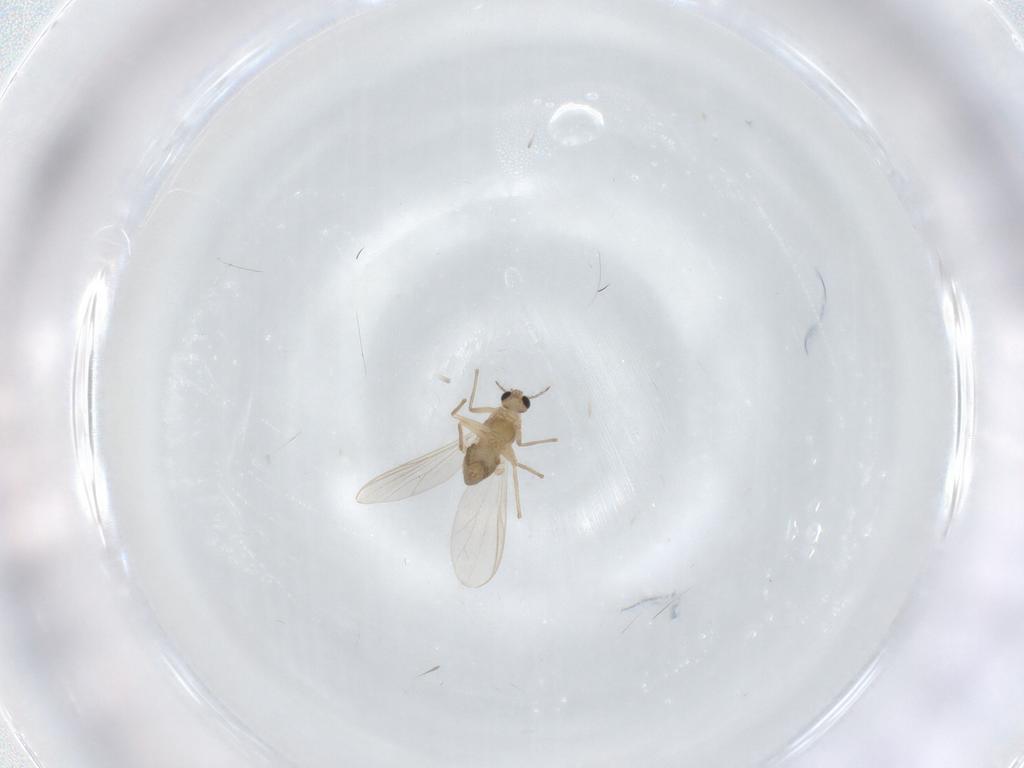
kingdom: Animalia
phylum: Arthropoda
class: Insecta
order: Diptera
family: Chironomidae
